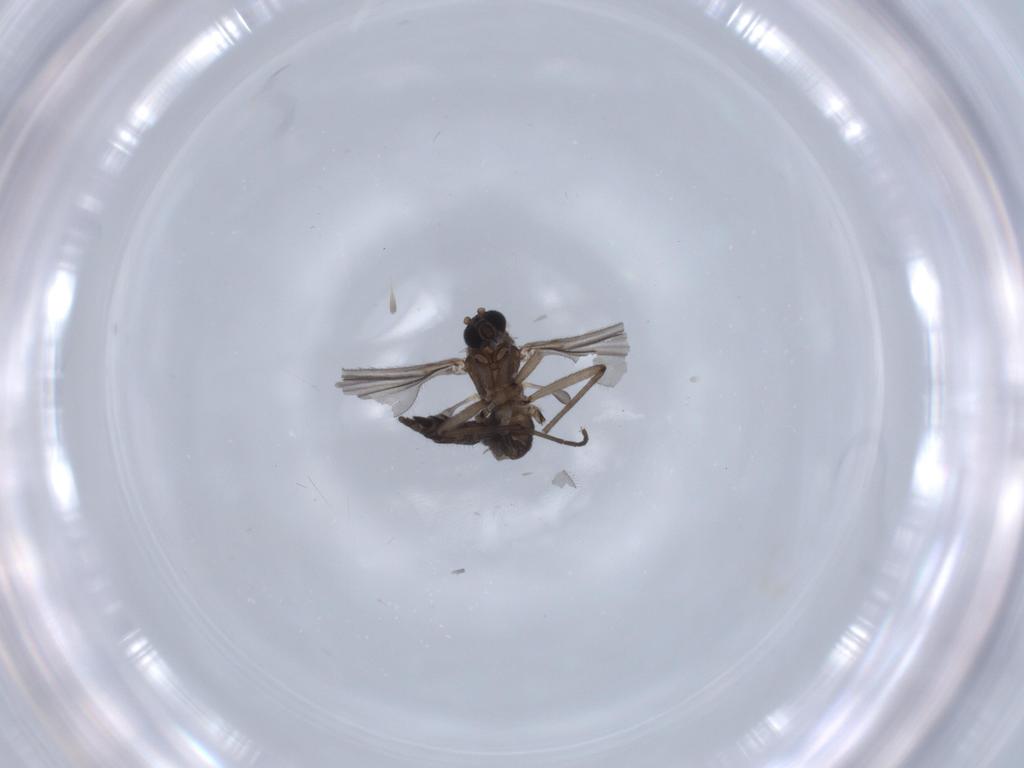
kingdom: Animalia
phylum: Arthropoda
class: Insecta
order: Diptera
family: Sciaridae
